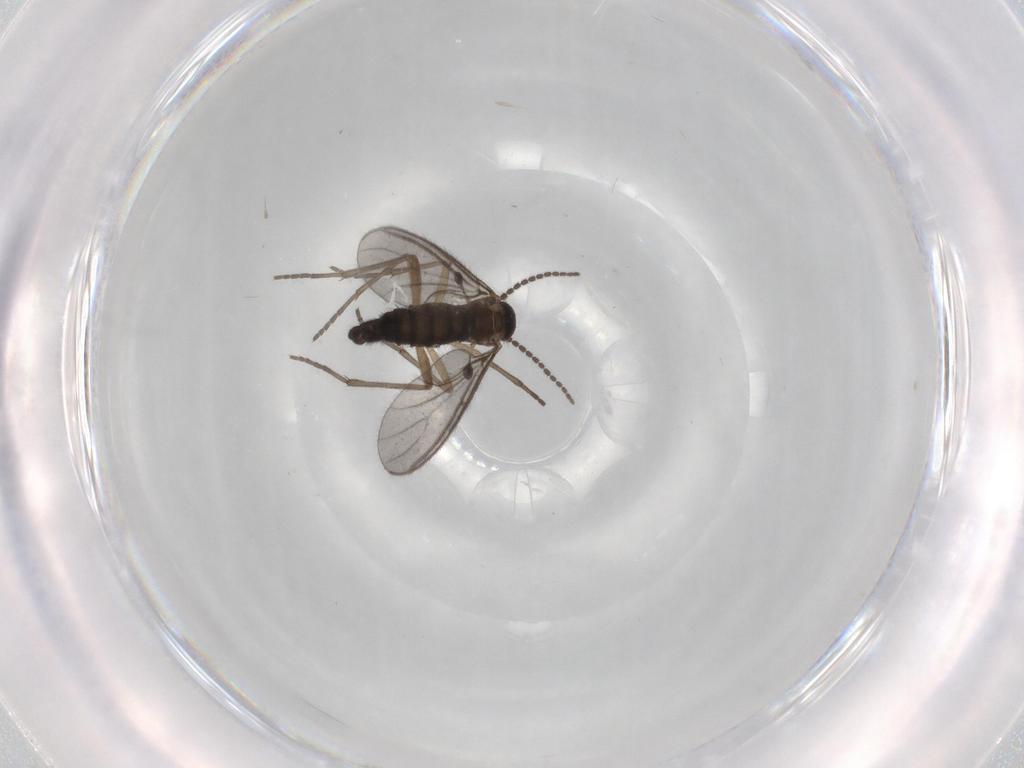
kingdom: Animalia
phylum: Arthropoda
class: Insecta
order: Diptera
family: Sciaridae
